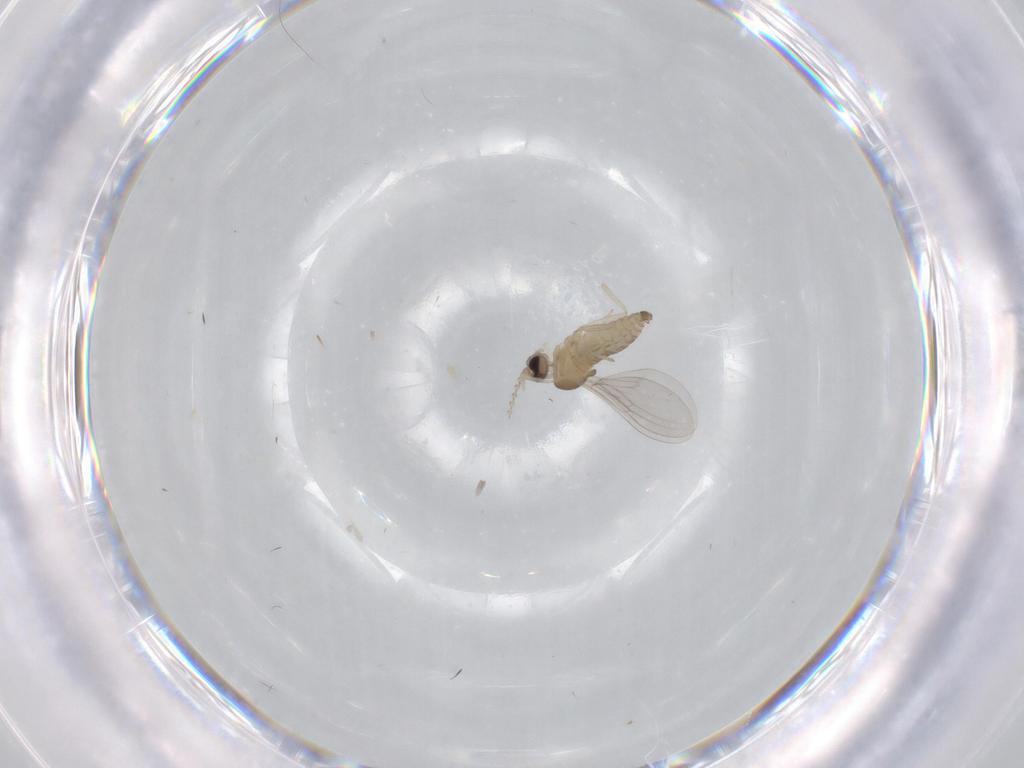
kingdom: Animalia
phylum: Arthropoda
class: Insecta
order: Diptera
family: Cecidomyiidae
